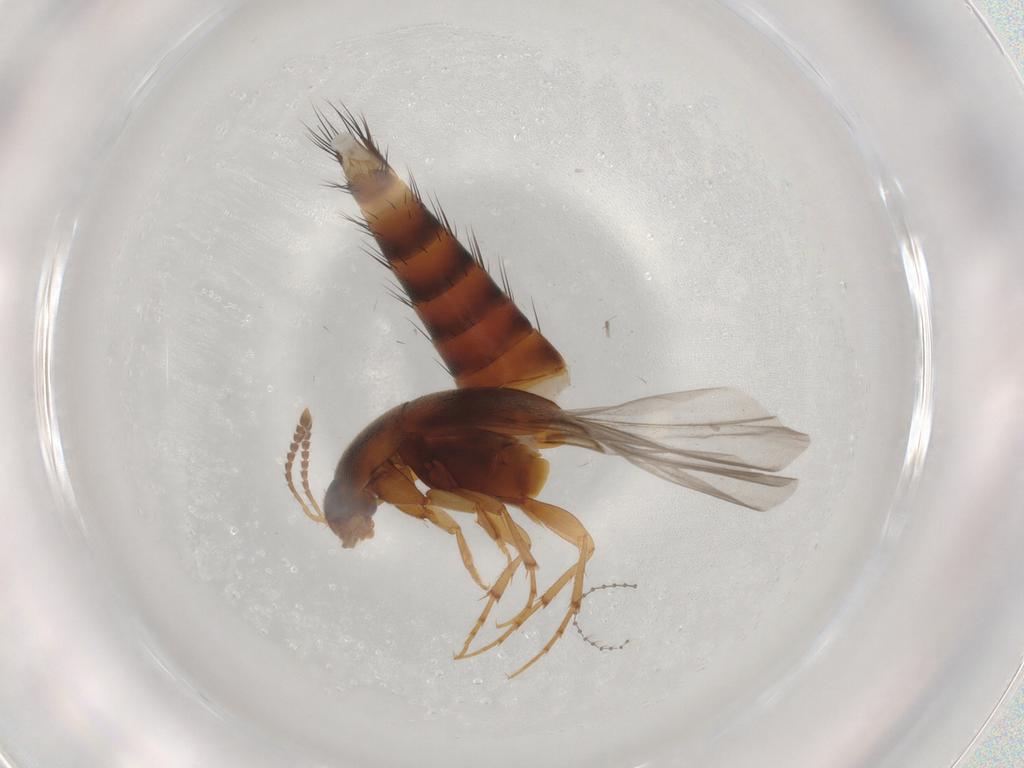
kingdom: Animalia
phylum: Arthropoda
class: Insecta
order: Coleoptera
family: Staphylinidae
